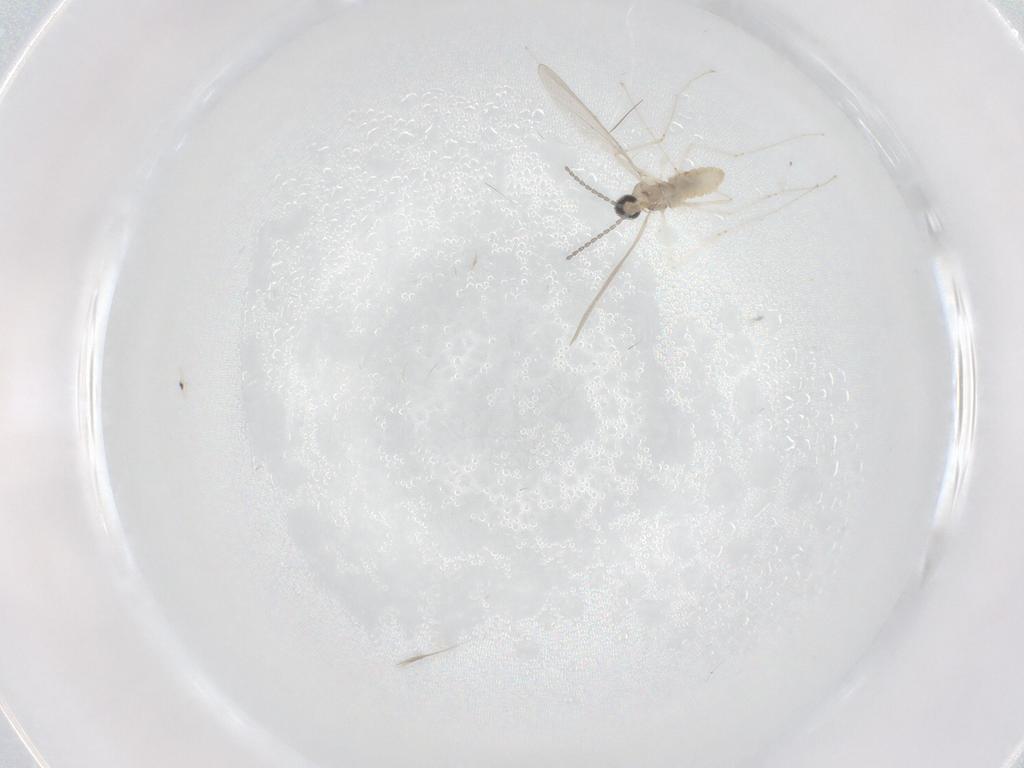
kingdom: Animalia
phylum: Arthropoda
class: Insecta
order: Diptera
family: Cecidomyiidae
